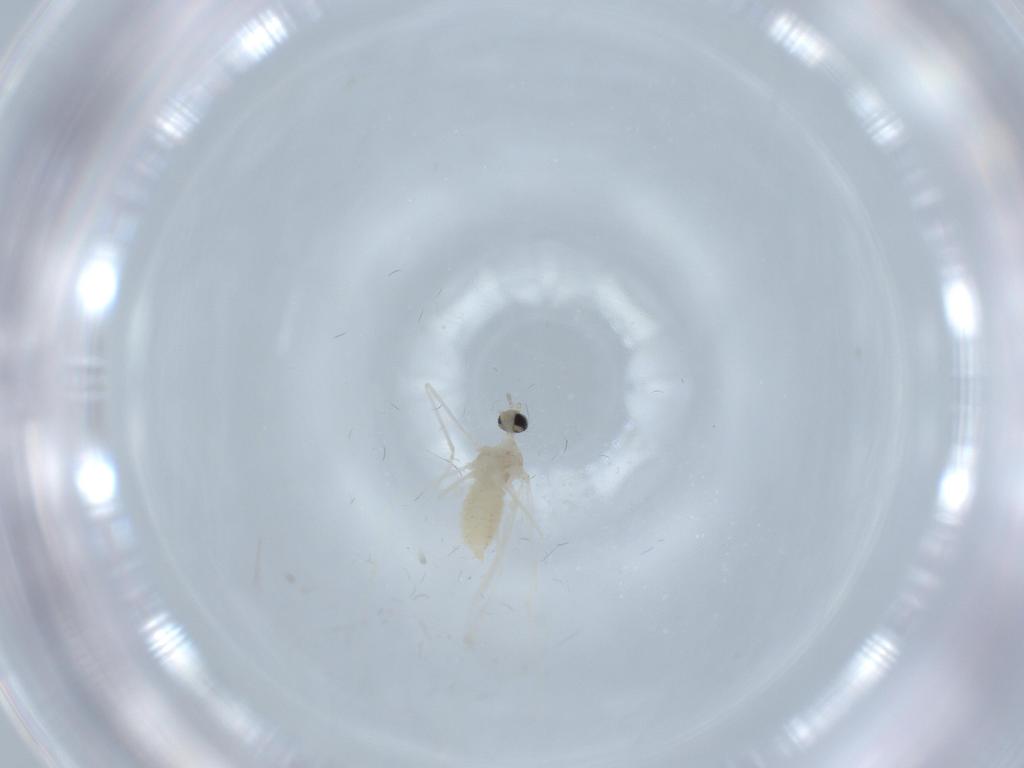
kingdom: Animalia
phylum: Arthropoda
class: Insecta
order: Diptera
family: Cecidomyiidae
